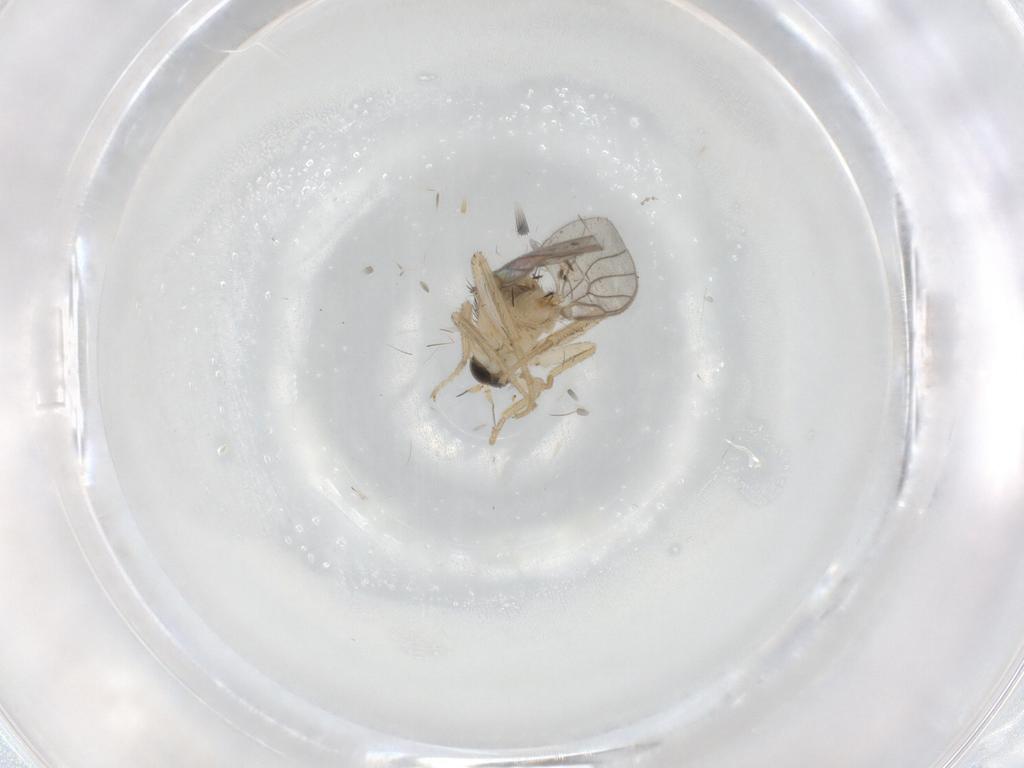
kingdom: Animalia
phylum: Arthropoda
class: Insecta
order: Diptera
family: Hybotidae
